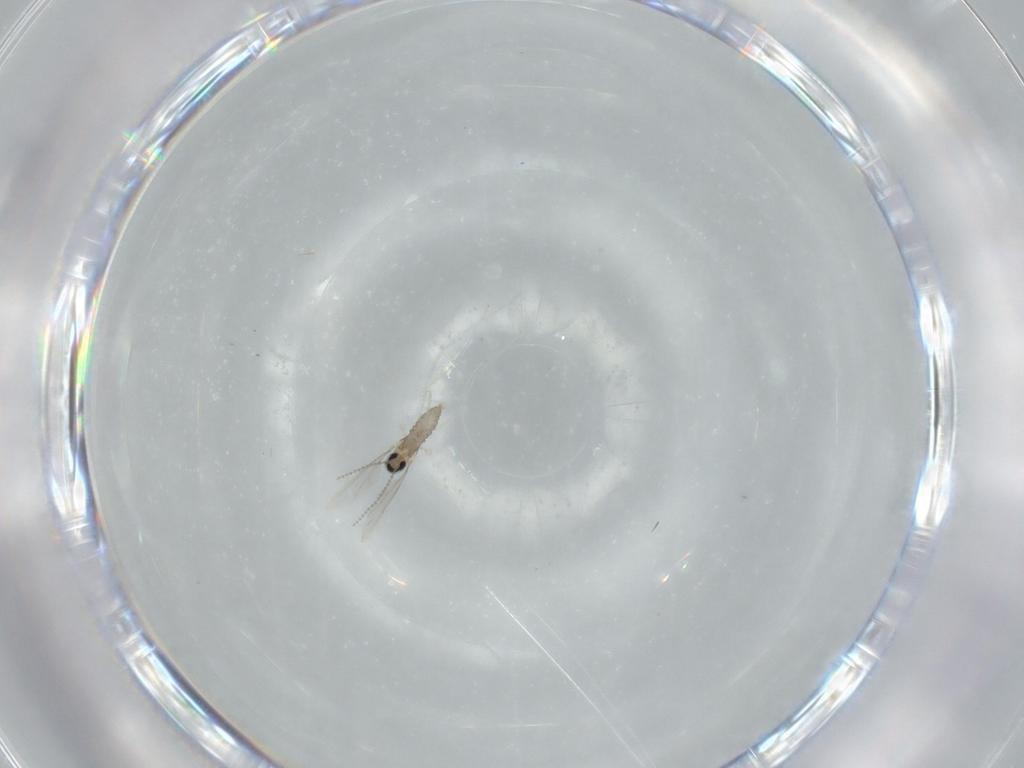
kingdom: Animalia
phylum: Arthropoda
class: Insecta
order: Diptera
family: Cecidomyiidae
